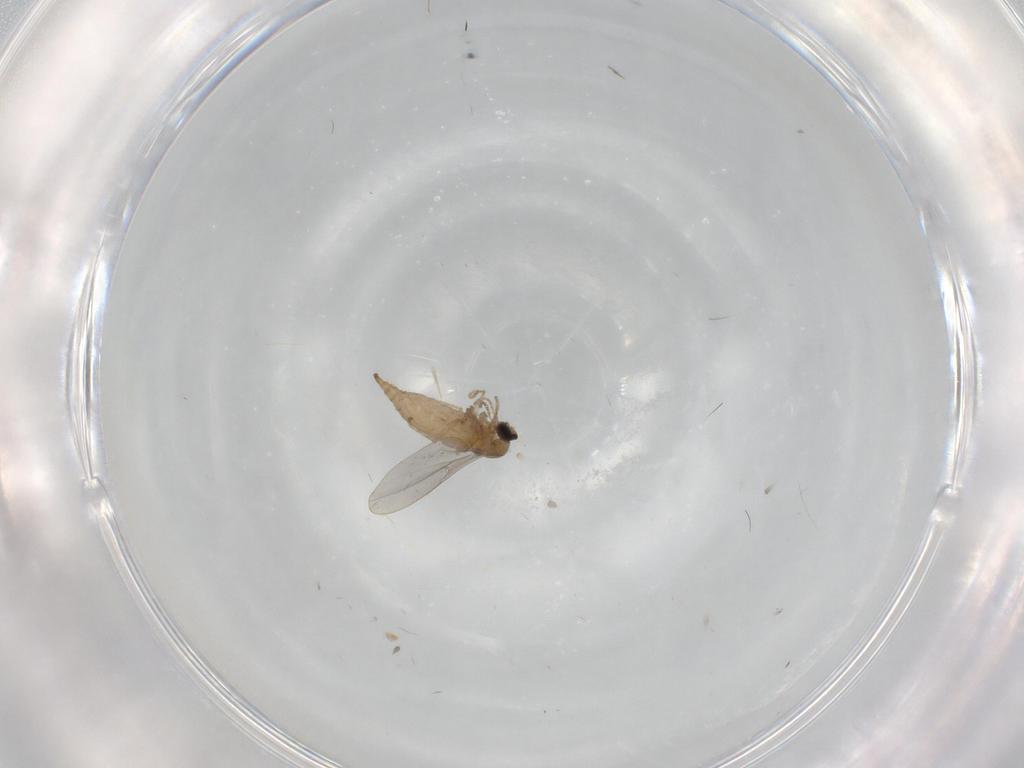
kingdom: Animalia
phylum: Arthropoda
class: Insecta
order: Diptera
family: Cecidomyiidae
